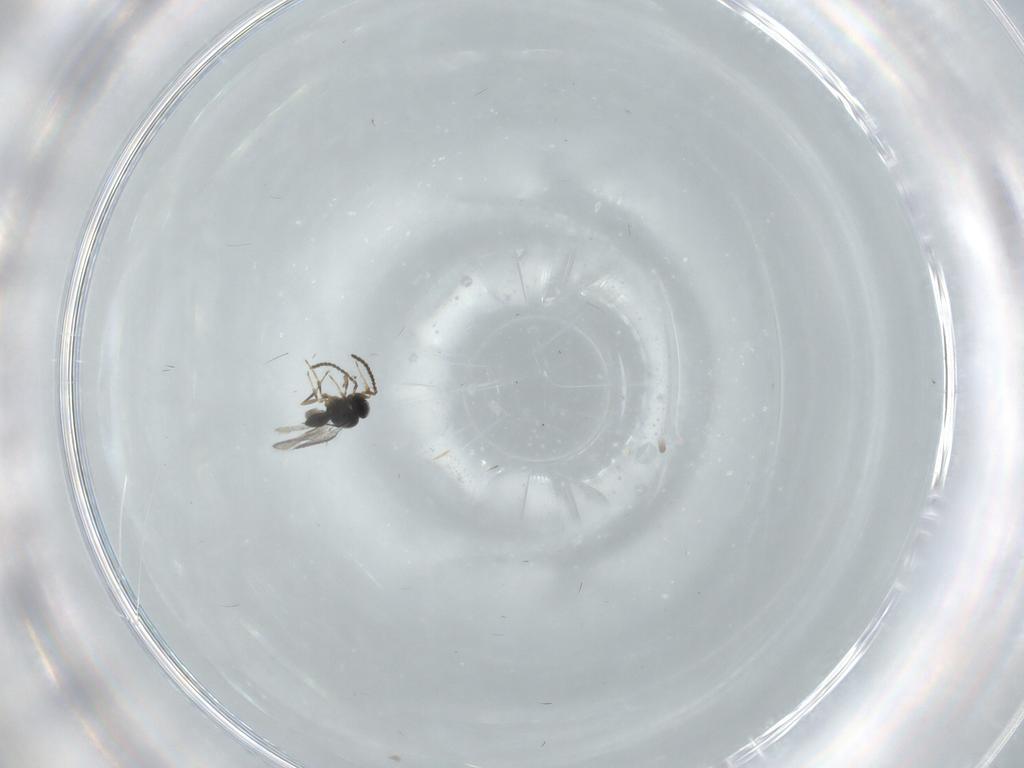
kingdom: Animalia
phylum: Arthropoda
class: Insecta
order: Hymenoptera
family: Scelionidae
